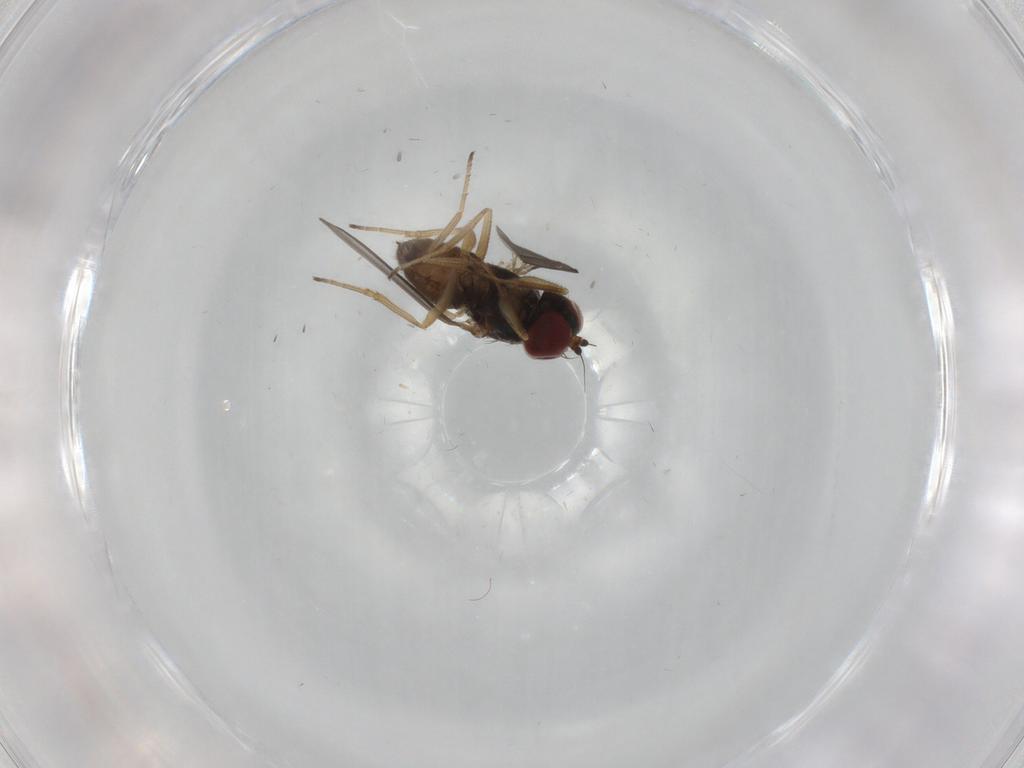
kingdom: Animalia
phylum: Arthropoda
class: Insecta
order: Diptera
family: Dolichopodidae
